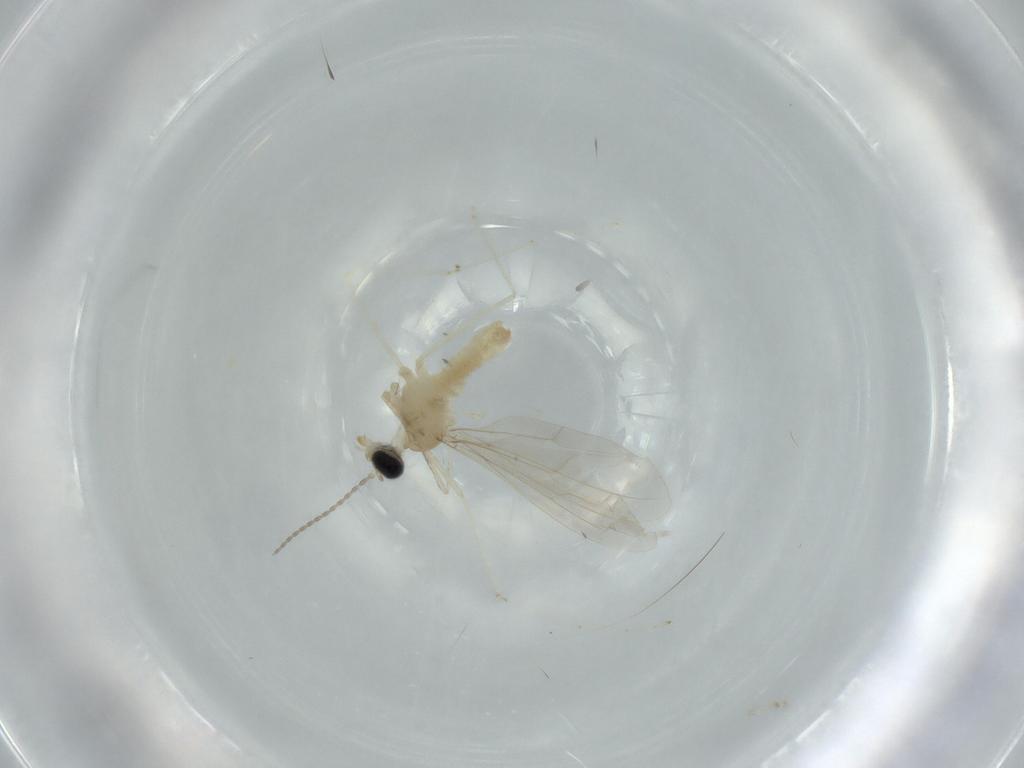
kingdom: Animalia
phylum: Arthropoda
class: Insecta
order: Diptera
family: Cecidomyiidae
